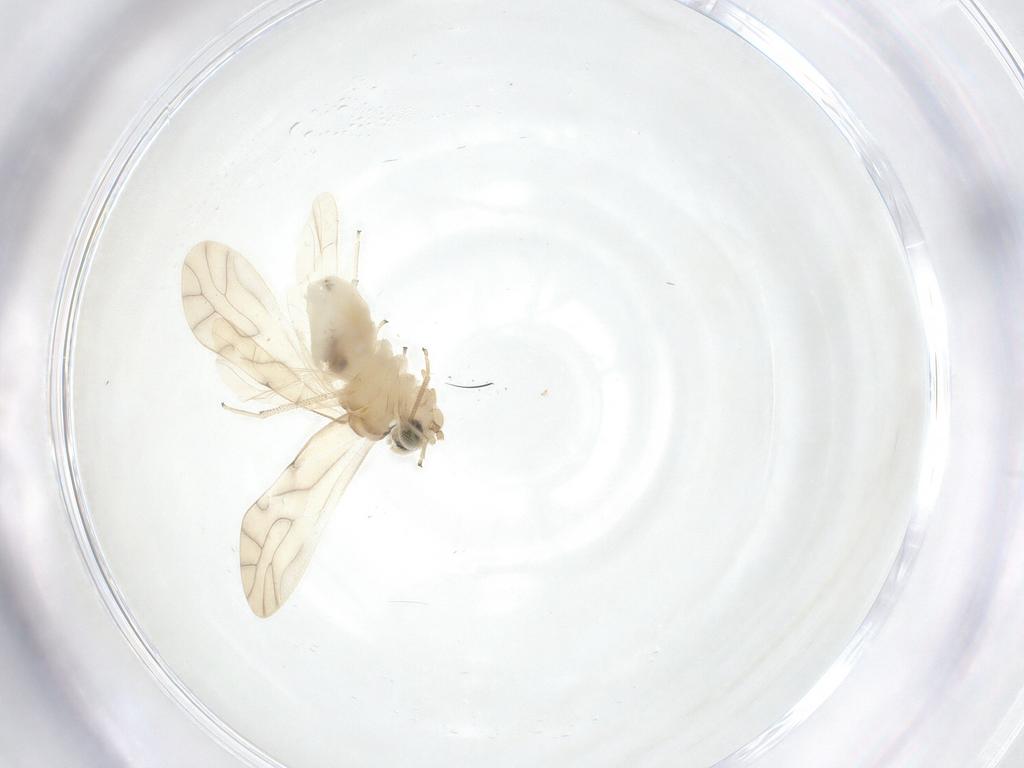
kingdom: Animalia
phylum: Arthropoda
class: Insecta
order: Psocodea
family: Caeciliusidae
